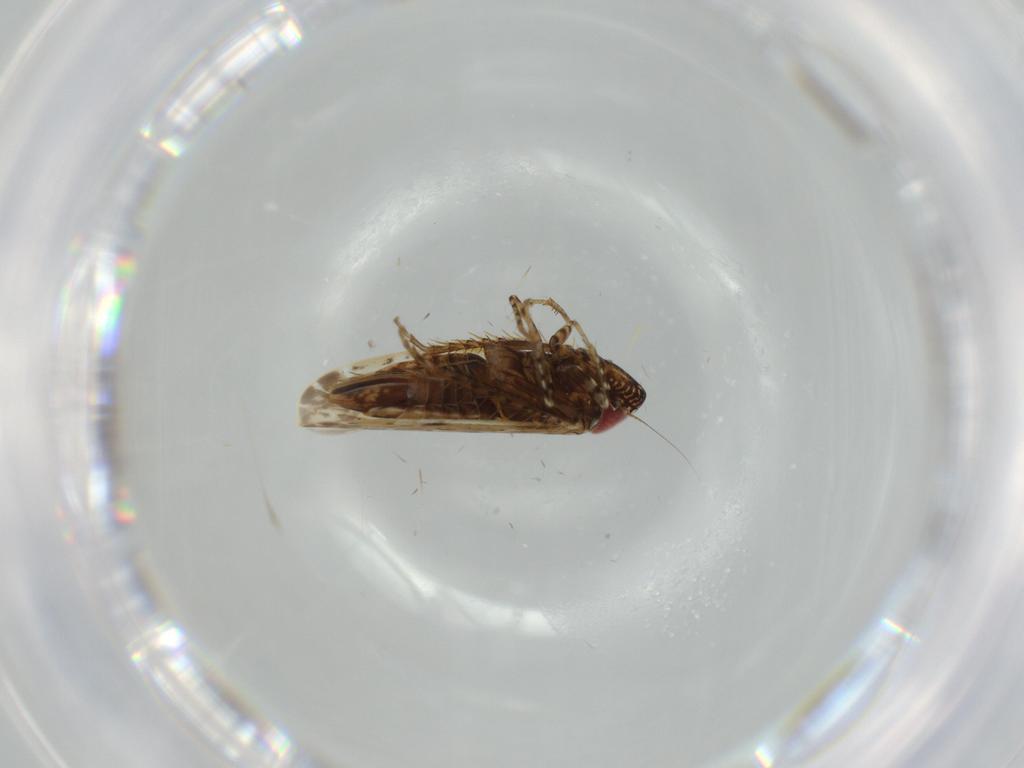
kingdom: Animalia
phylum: Arthropoda
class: Insecta
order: Hemiptera
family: Cicadellidae
